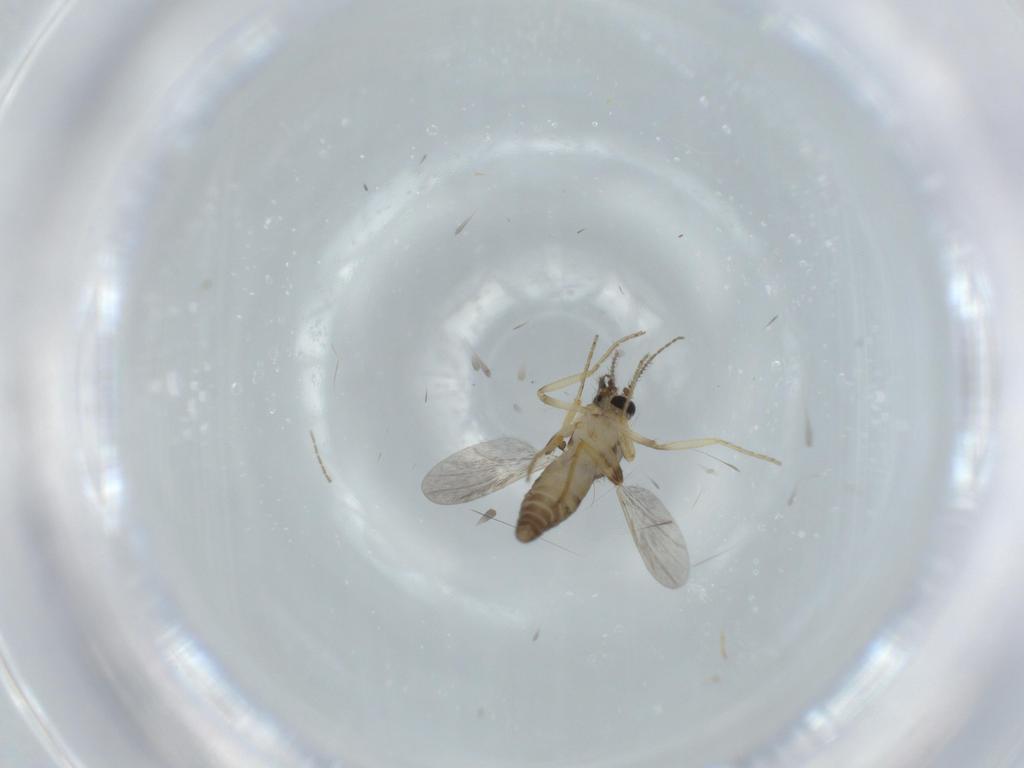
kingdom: Animalia
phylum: Arthropoda
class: Insecta
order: Diptera
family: Ceratopogonidae
